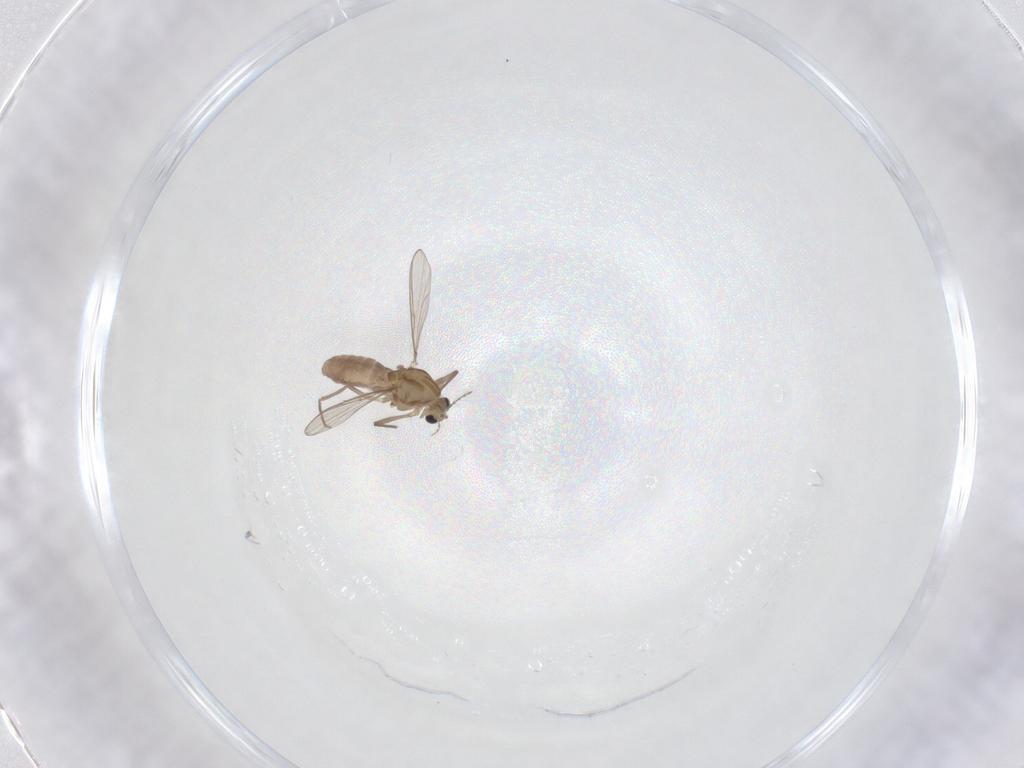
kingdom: Animalia
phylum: Arthropoda
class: Insecta
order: Diptera
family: Chironomidae
